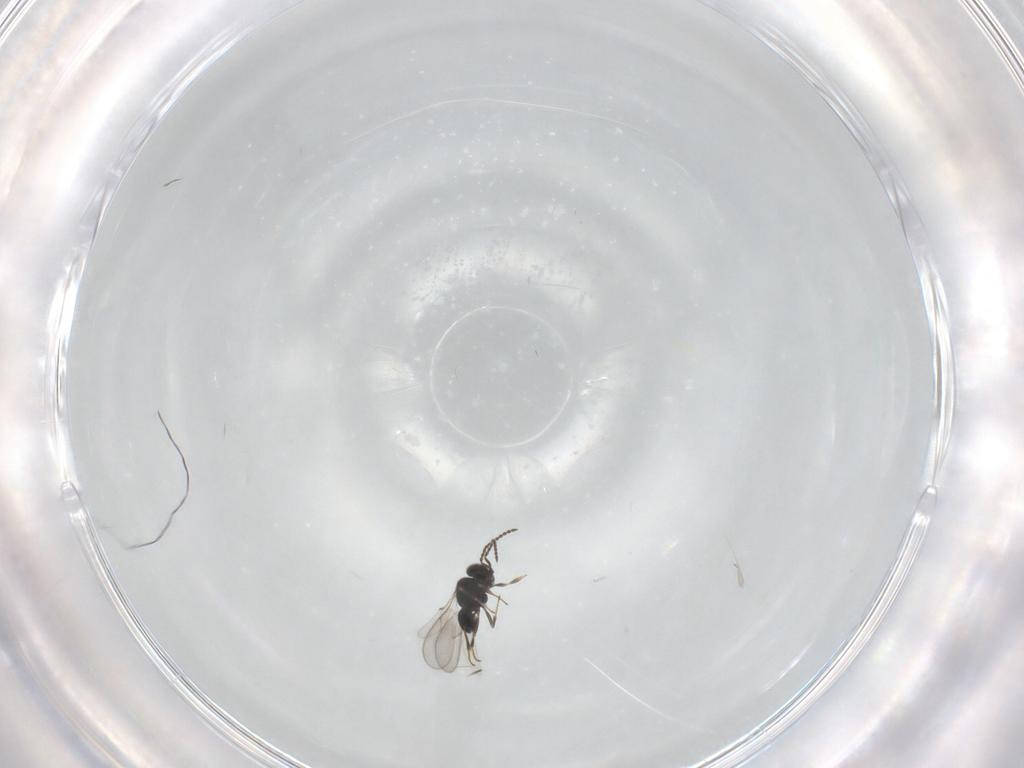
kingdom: Animalia
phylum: Arthropoda
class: Insecta
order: Hymenoptera
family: Scelionidae
